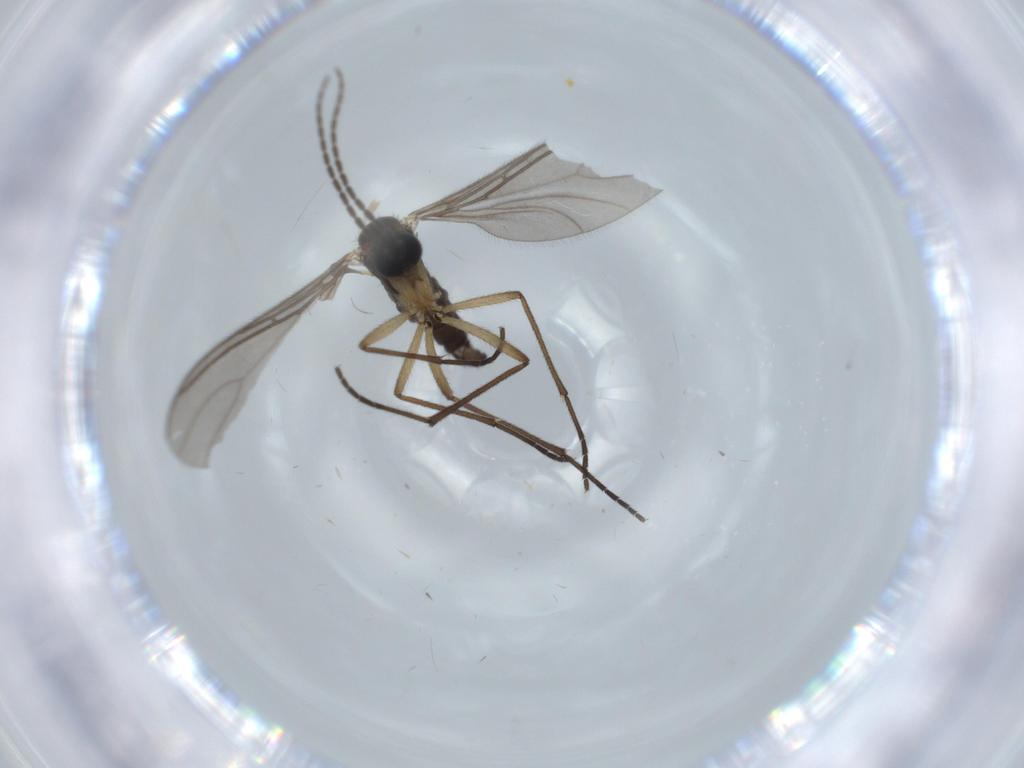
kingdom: Animalia
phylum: Arthropoda
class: Insecta
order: Diptera
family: Sciaridae
